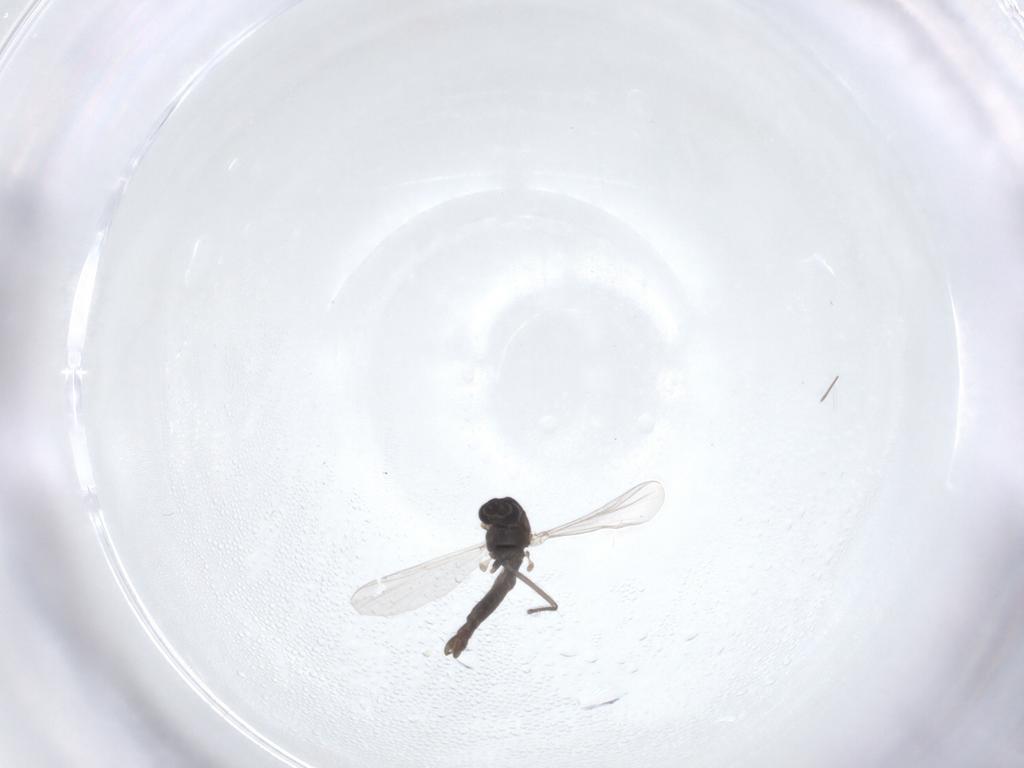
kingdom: Animalia
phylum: Arthropoda
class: Insecta
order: Diptera
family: Chironomidae
